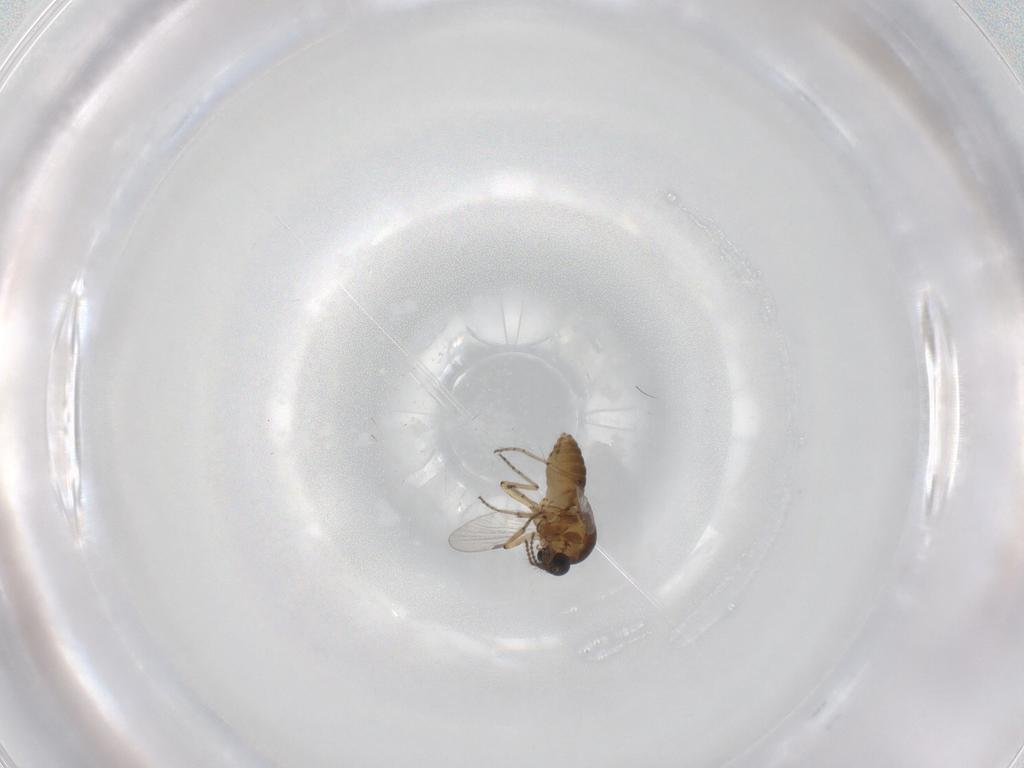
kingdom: Animalia
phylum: Arthropoda
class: Insecta
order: Diptera
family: Ceratopogonidae
